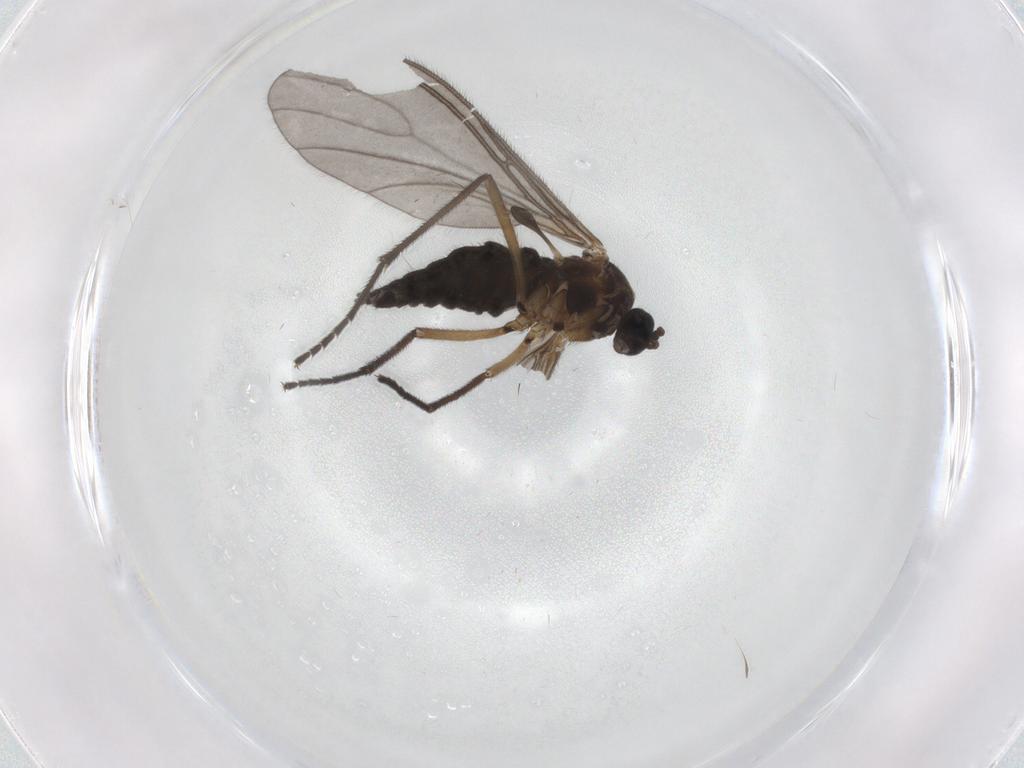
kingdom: Animalia
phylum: Arthropoda
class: Insecta
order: Diptera
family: Sciaridae
